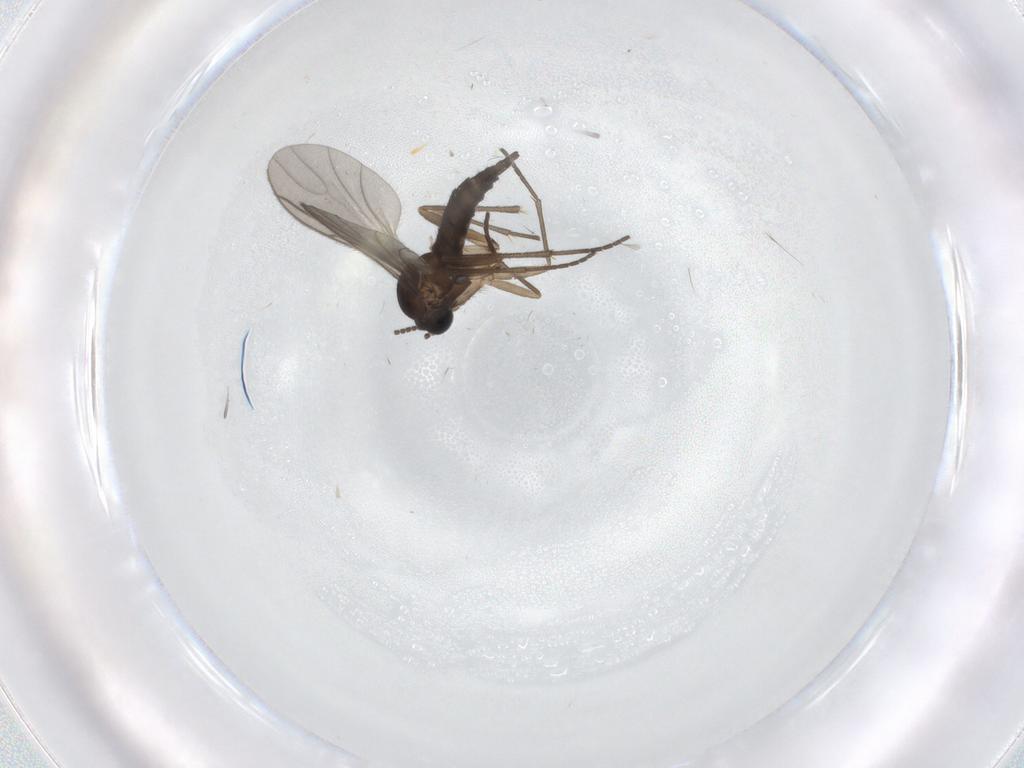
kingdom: Animalia
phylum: Arthropoda
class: Insecta
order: Diptera
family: Sciaridae
